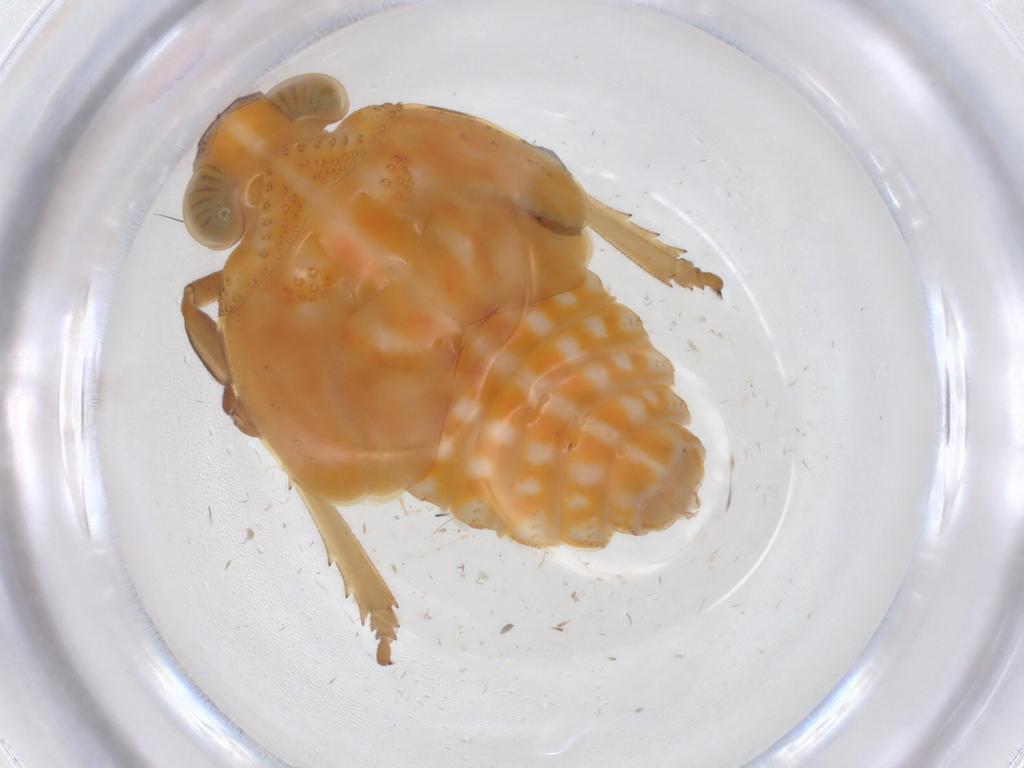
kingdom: Animalia
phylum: Arthropoda
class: Insecta
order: Hemiptera
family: Issidae
